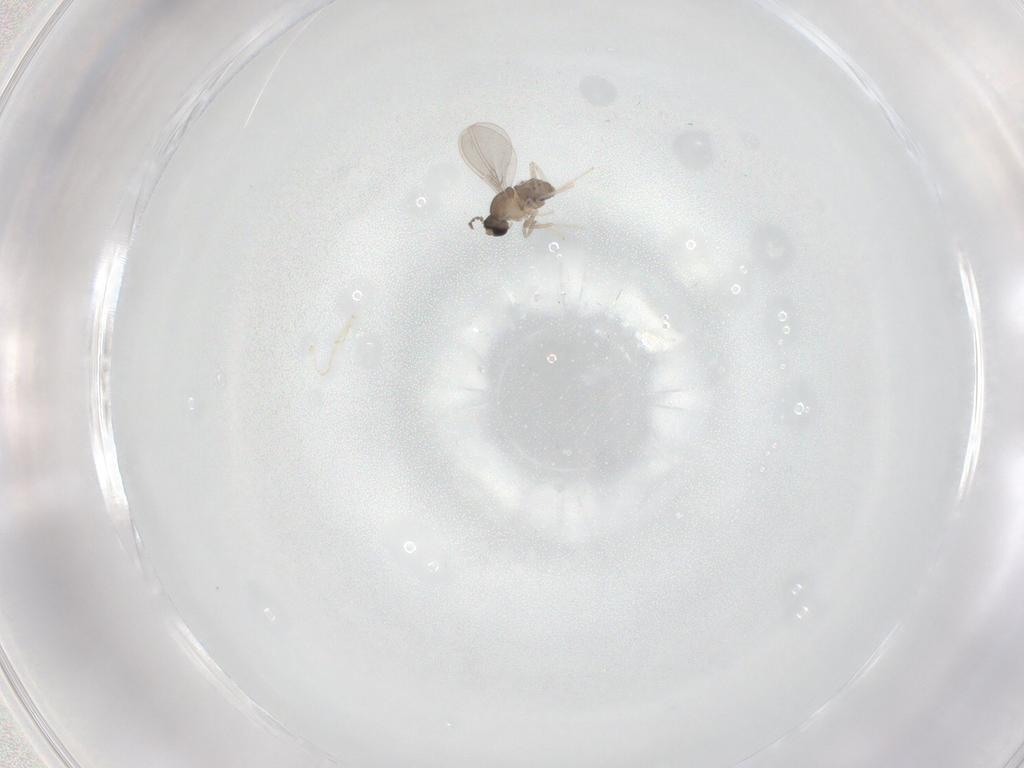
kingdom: Animalia
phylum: Arthropoda
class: Insecta
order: Diptera
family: Cecidomyiidae
